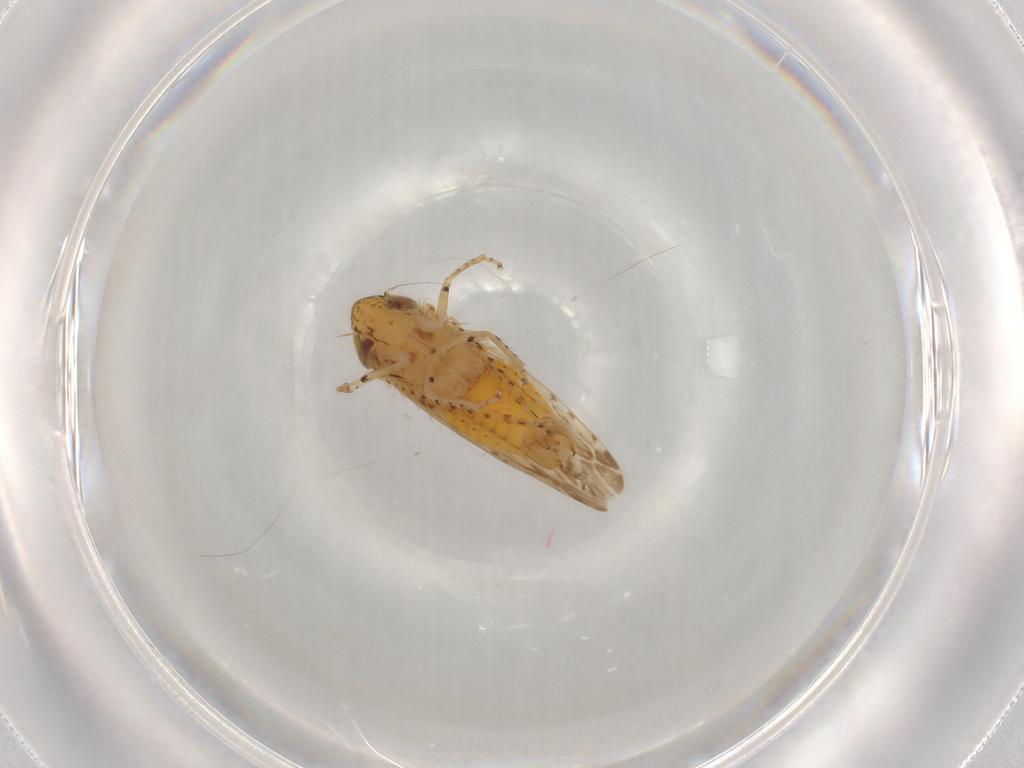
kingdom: Animalia
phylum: Arthropoda
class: Insecta
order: Hemiptera
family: Cicadellidae
